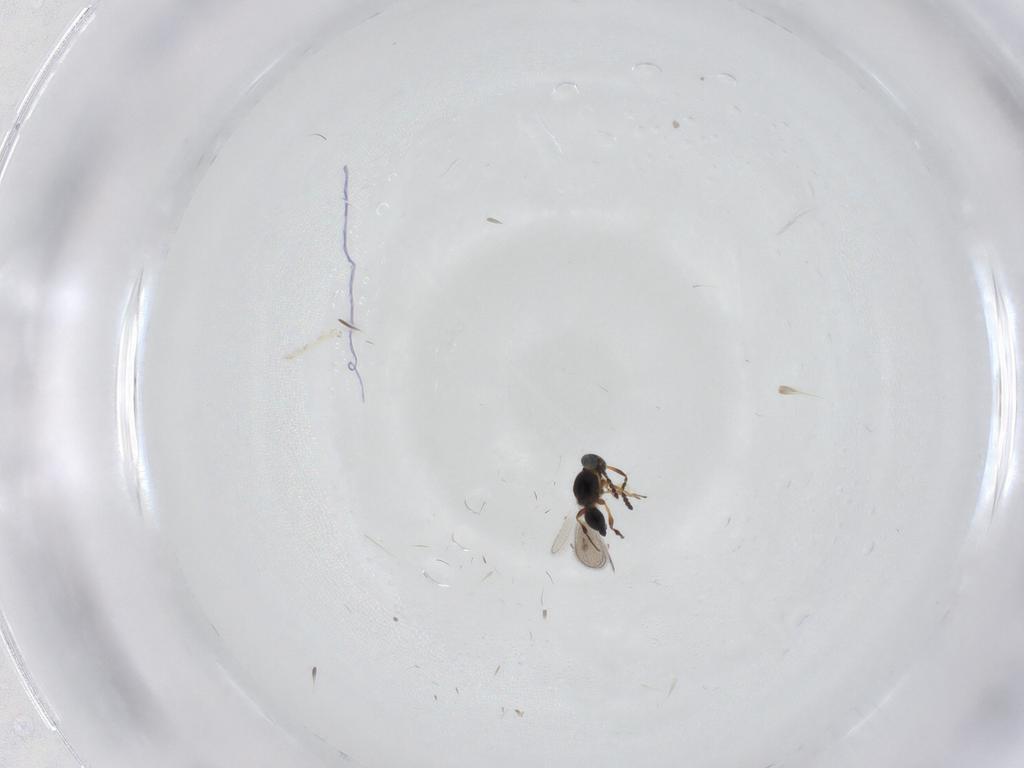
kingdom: Animalia
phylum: Arthropoda
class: Insecta
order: Hymenoptera
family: Platygastridae
